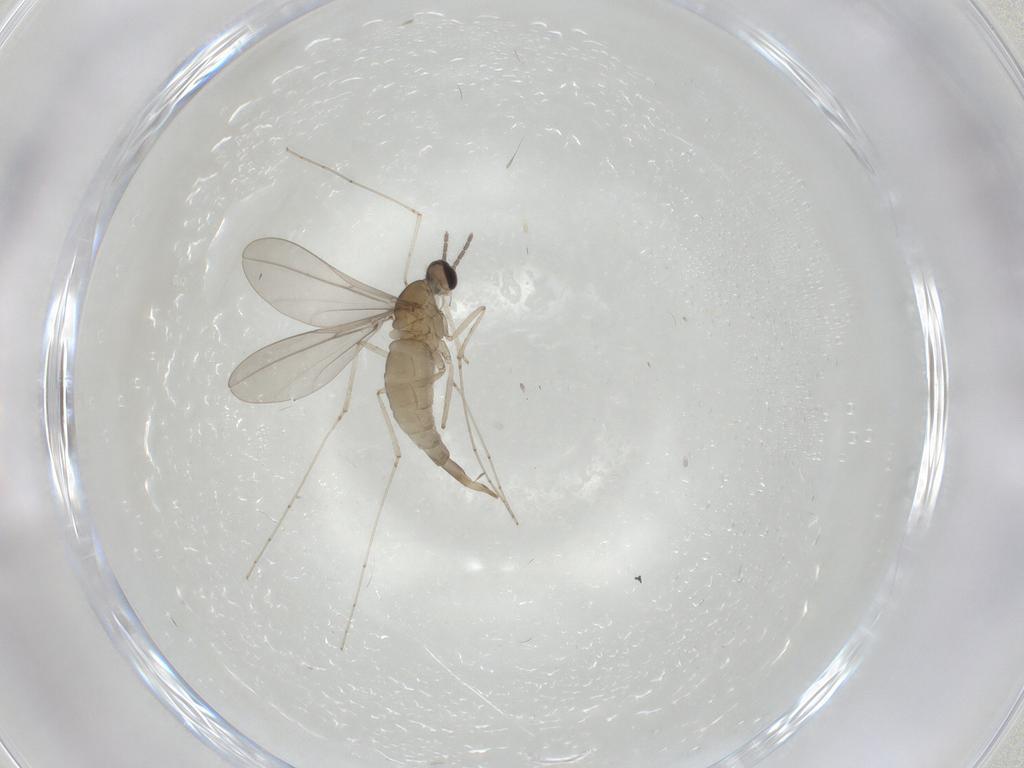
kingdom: Animalia
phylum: Arthropoda
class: Insecta
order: Diptera
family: Cecidomyiidae
